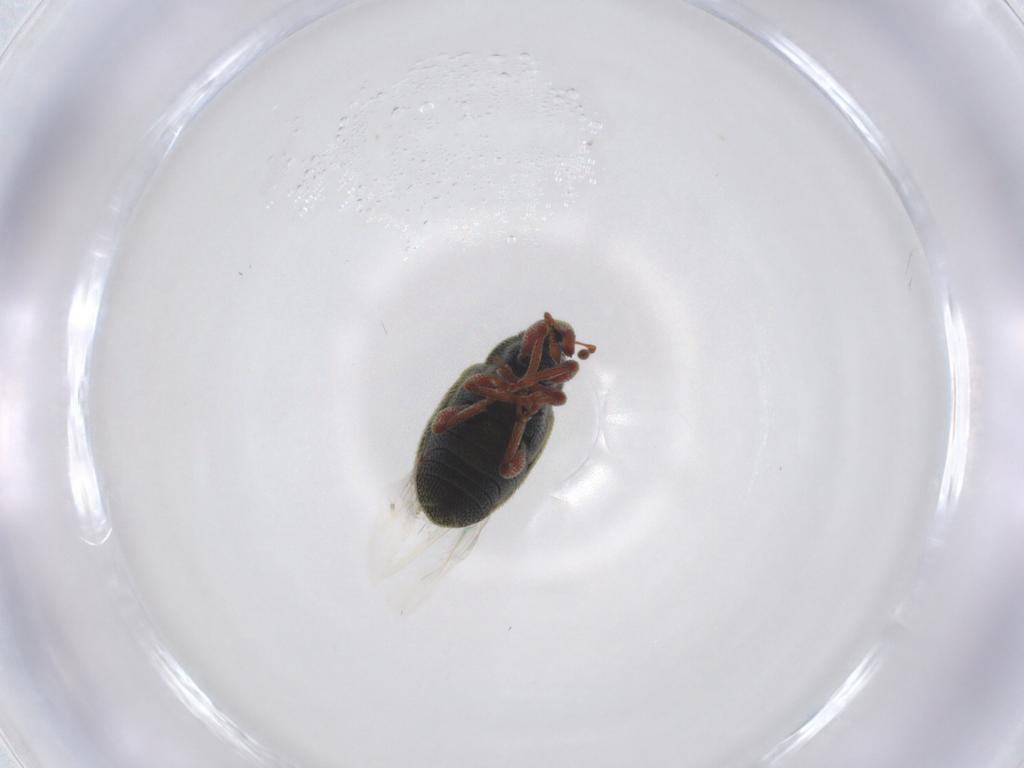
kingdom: Animalia
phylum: Arthropoda
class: Insecta
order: Coleoptera
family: Curculionidae
